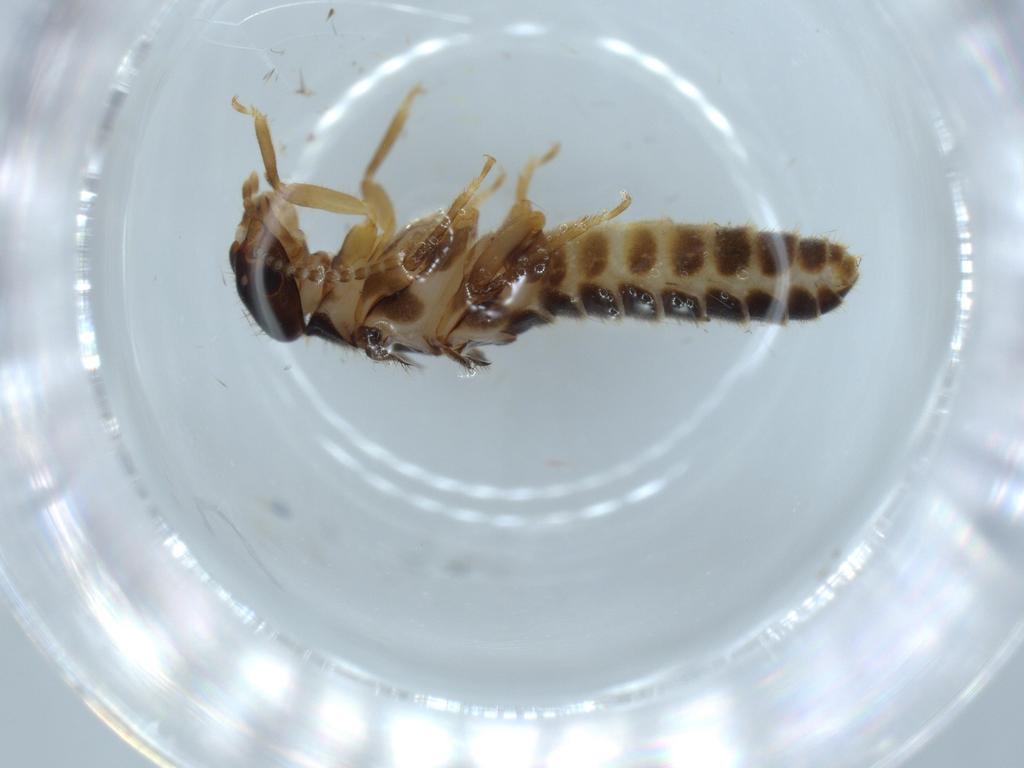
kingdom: Animalia
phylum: Arthropoda
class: Insecta
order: Blattodea
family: Termitidae
